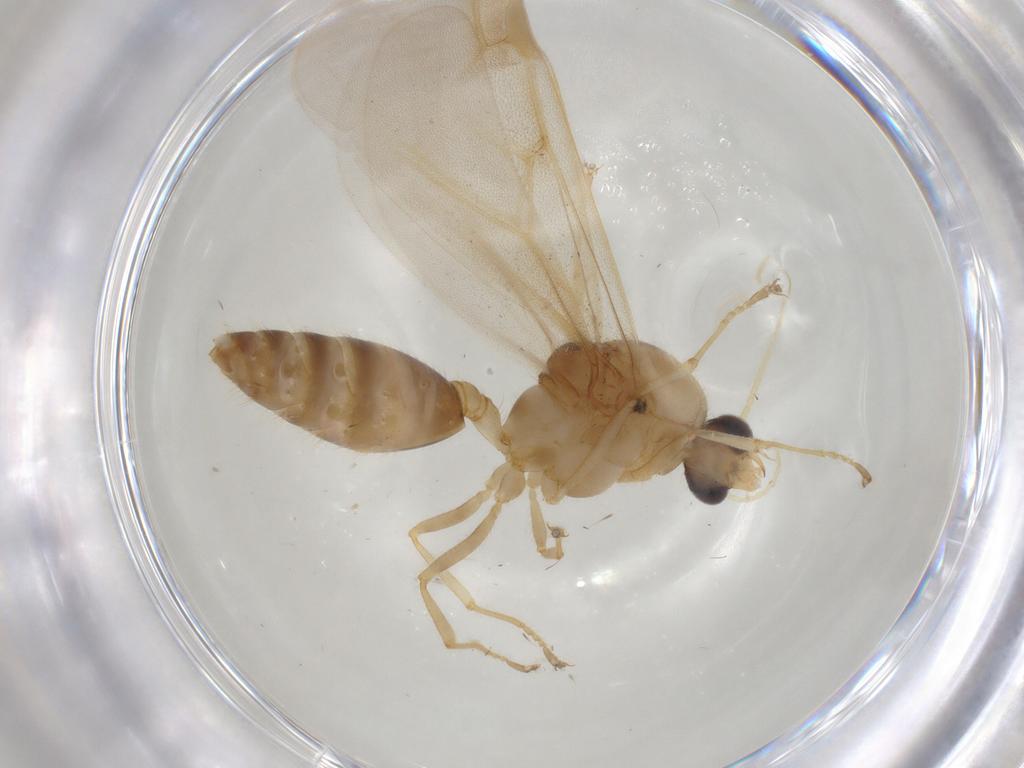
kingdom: Animalia
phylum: Arthropoda
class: Insecta
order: Hymenoptera
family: Formicidae
